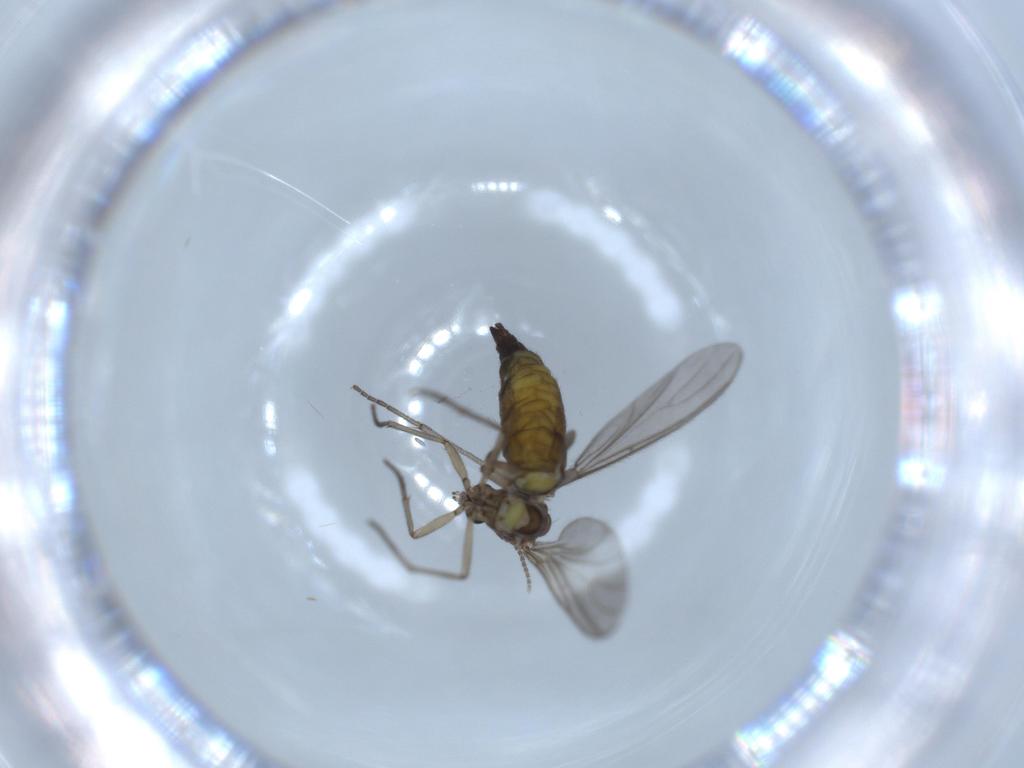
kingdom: Animalia
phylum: Arthropoda
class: Insecta
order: Diptera
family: Sciaridae
